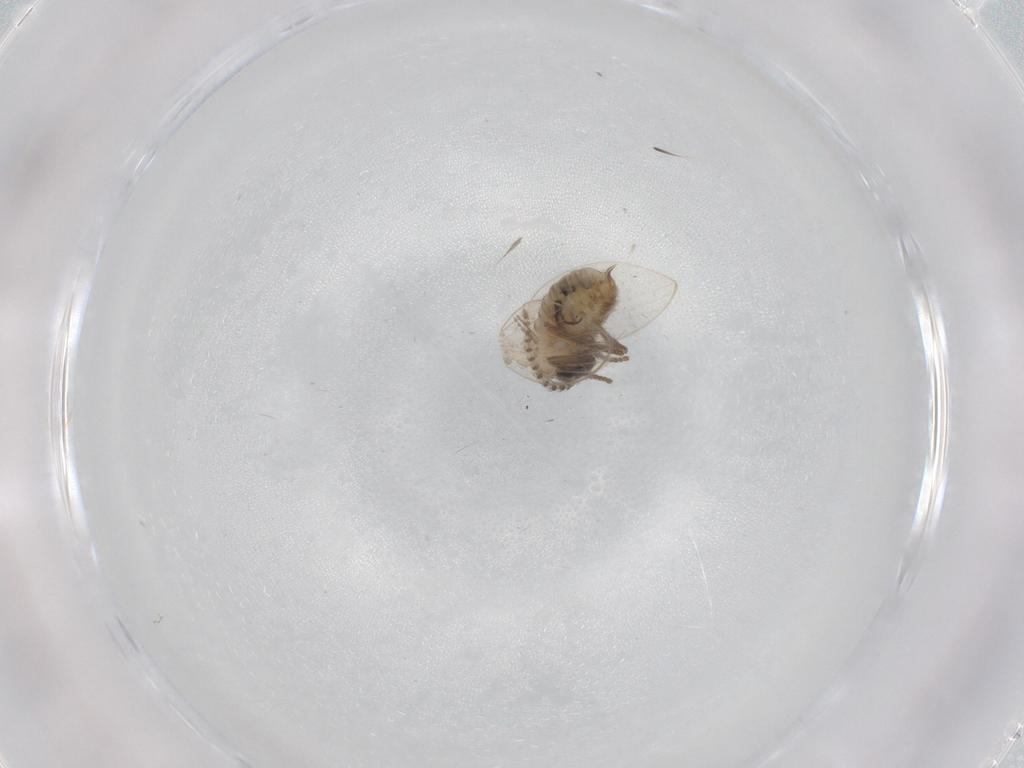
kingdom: Animalia
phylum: Arthropoda
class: Insecta
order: Diptera
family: Psychodidae
